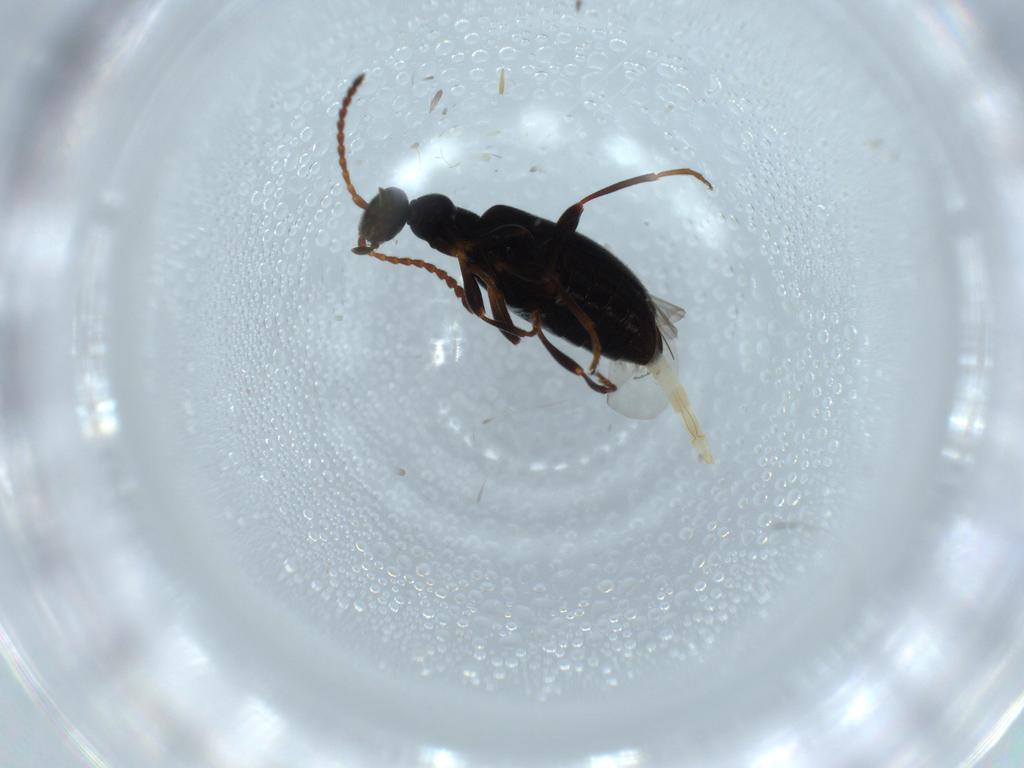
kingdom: Animalia
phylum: Arthropoda
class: Insecta
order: Coleoptera
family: Anthicidae
